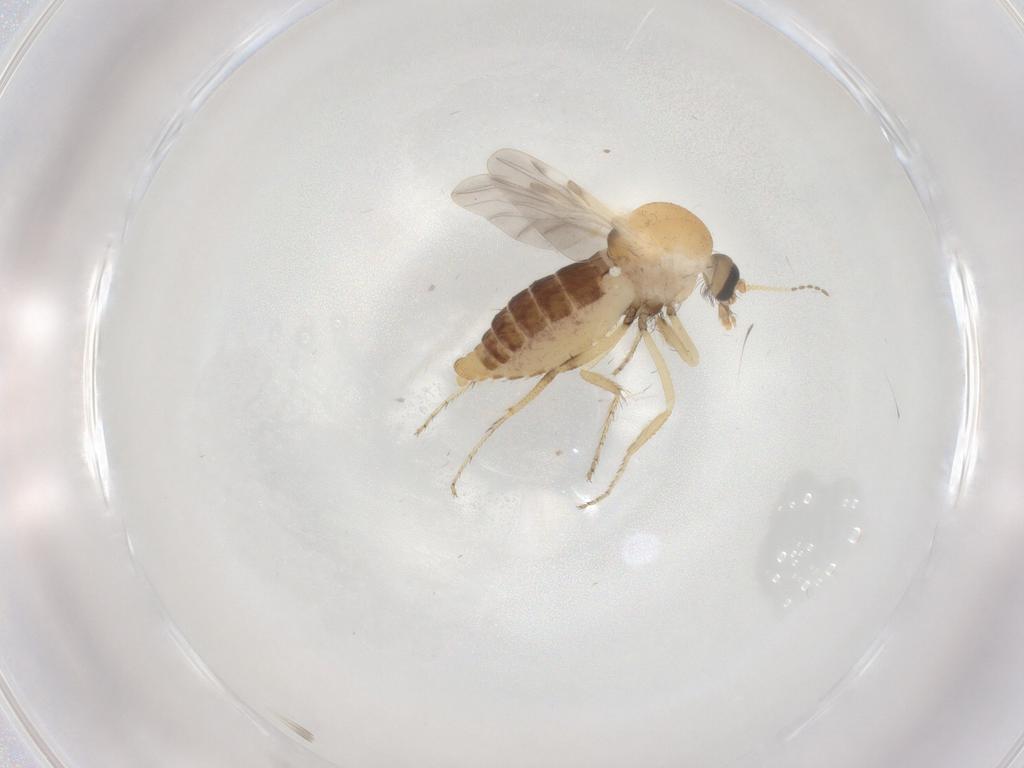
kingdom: Animalia
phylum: Arthropoda
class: Insecta
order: Diptera
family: Ceratopogonidae
